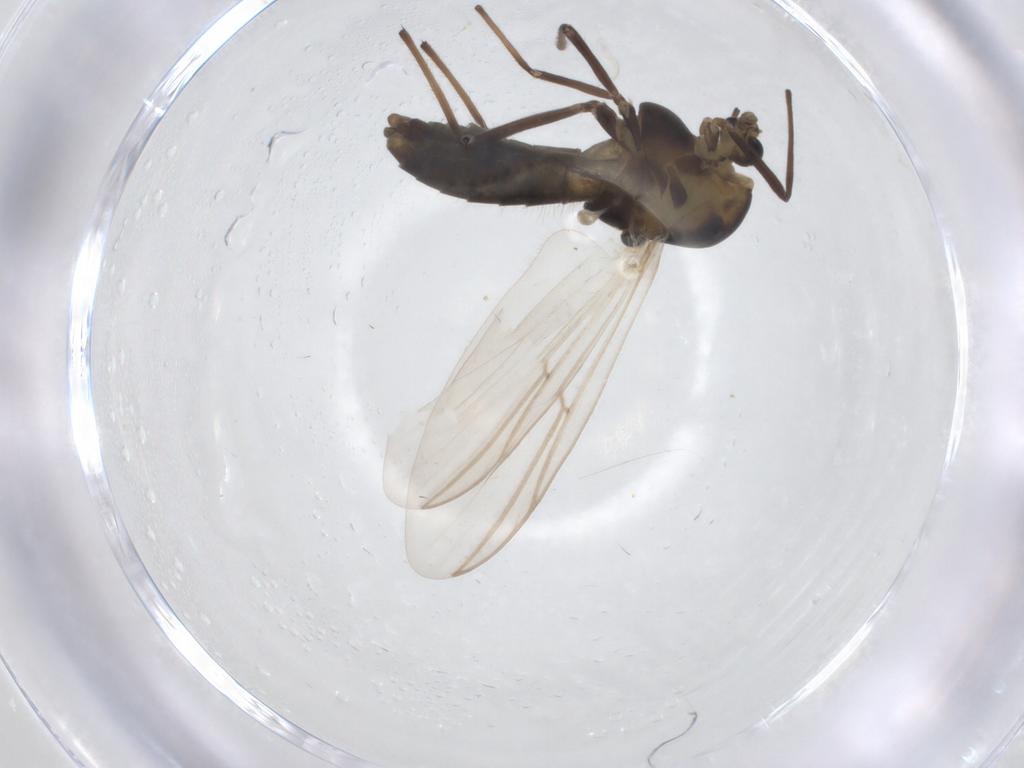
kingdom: Animalia
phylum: Arthropoda
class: Insecta
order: Diptera
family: Chironomidae
